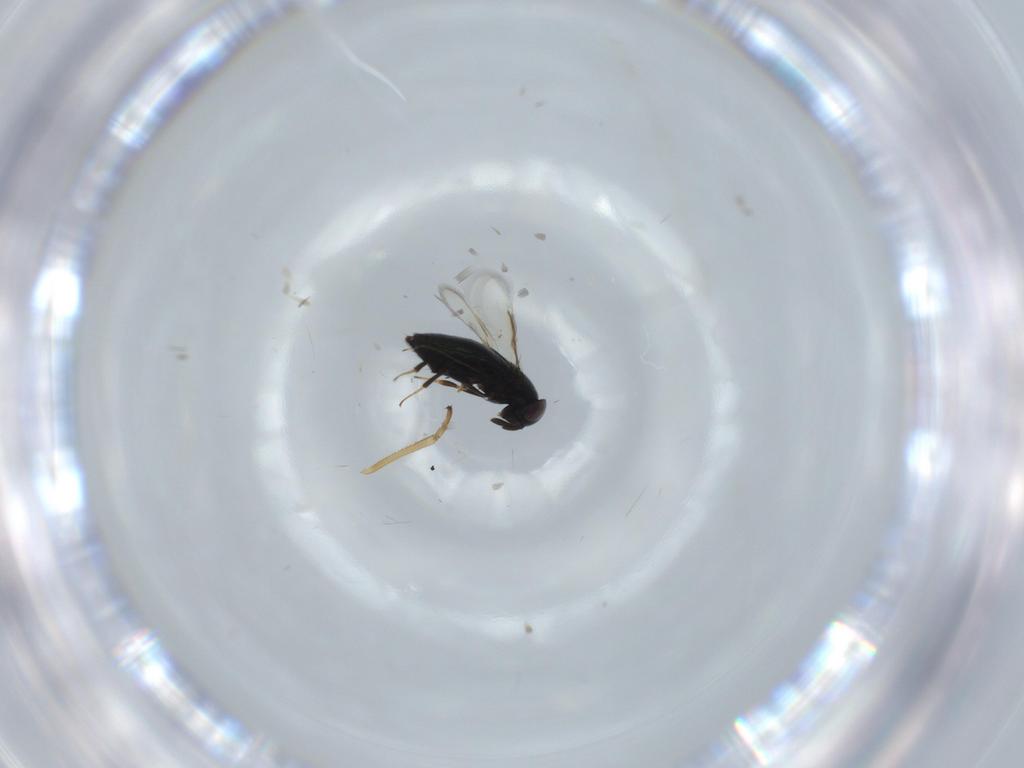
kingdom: Animalia
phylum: Arthropoda
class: Insecta
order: Hymenoptera
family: Signiphoridae
